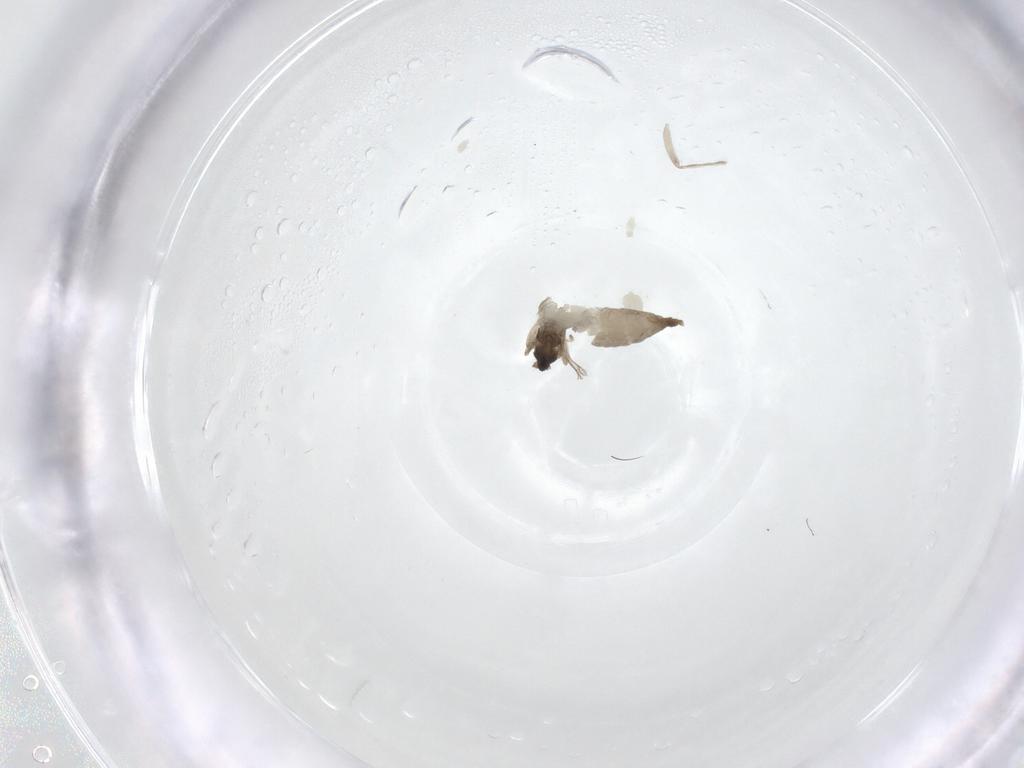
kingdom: Animalia
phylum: Arthropoda
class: Insecta
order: Diptera
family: Cecidomyiidae
